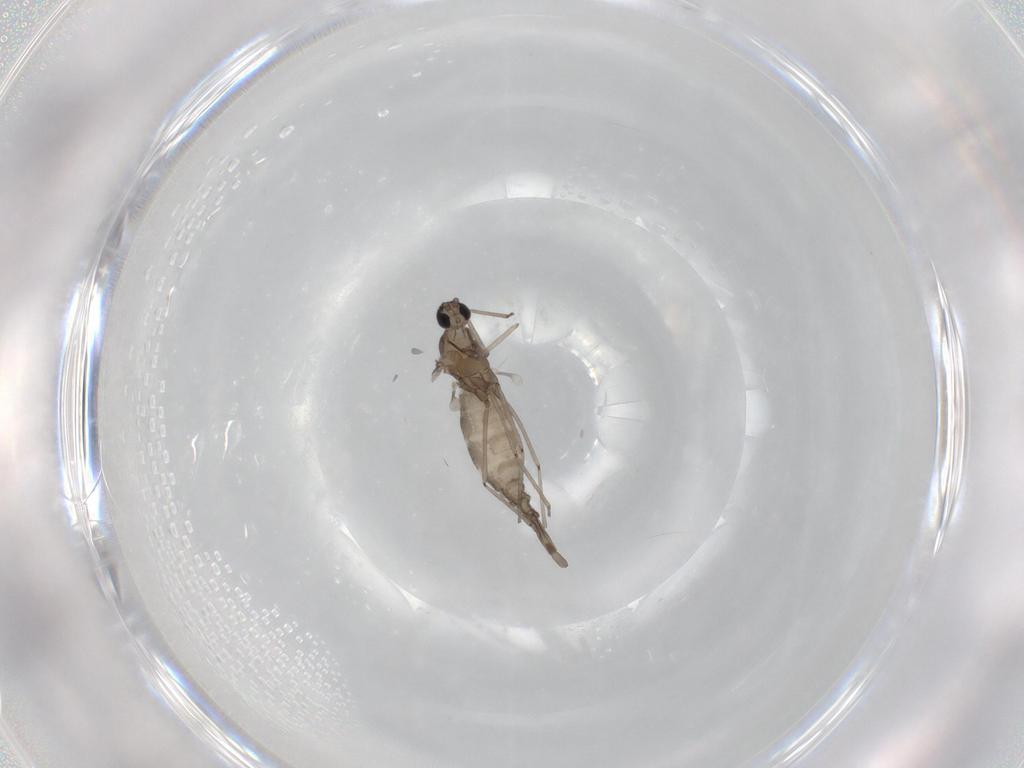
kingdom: Animalia
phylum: Arthropoda
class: Insecta
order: Diptera
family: Cecidomyiidae
